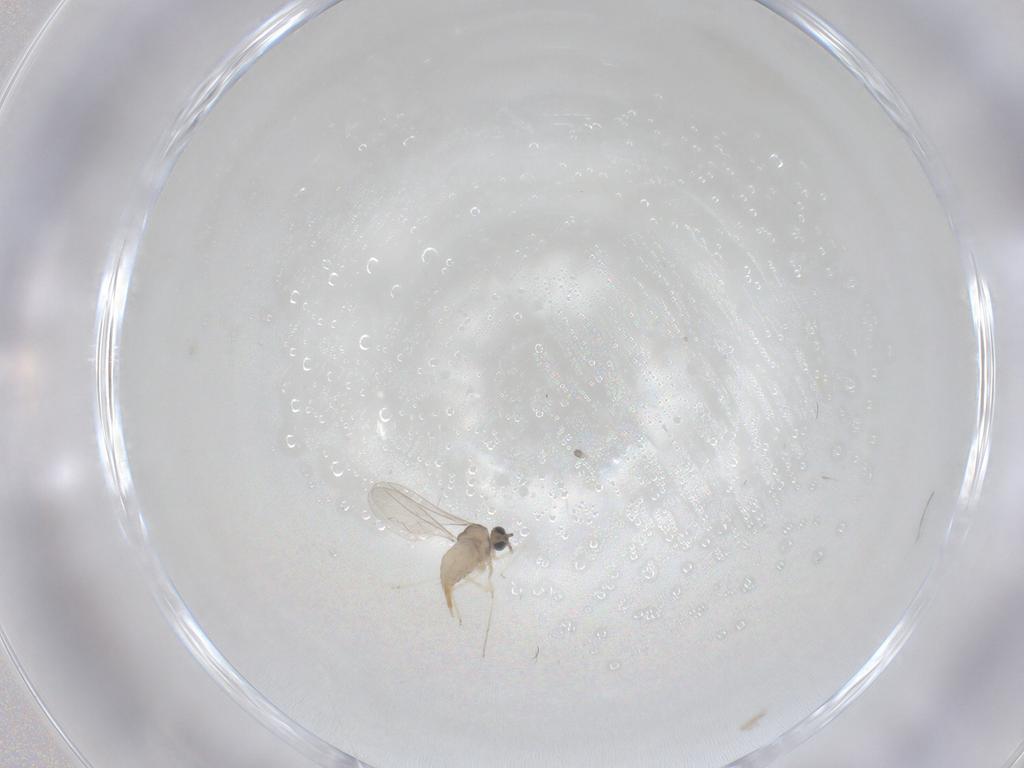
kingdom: Animalia
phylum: Arthropoda
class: Insecta
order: Diptera
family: Cecidomyiidae
